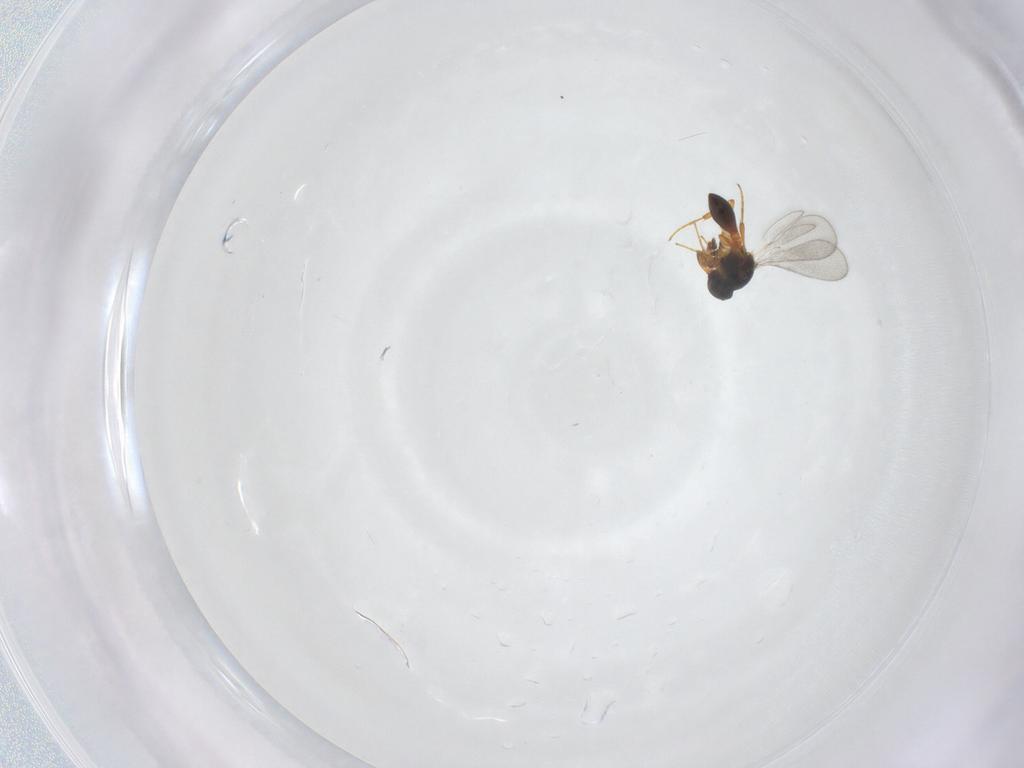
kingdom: Animalia
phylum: Arthropoda
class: Insecta
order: Hymenoptera
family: Platygastridae
